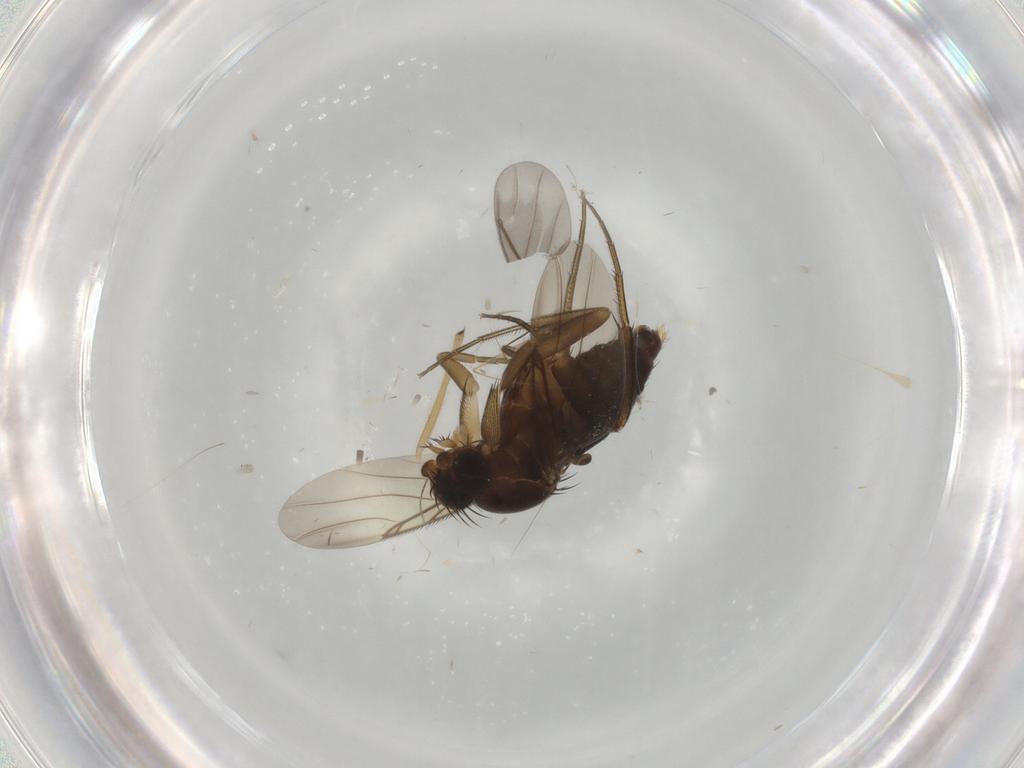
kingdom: Animalia
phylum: Arthropoda
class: Insecta
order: Diptera
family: Phoridae
